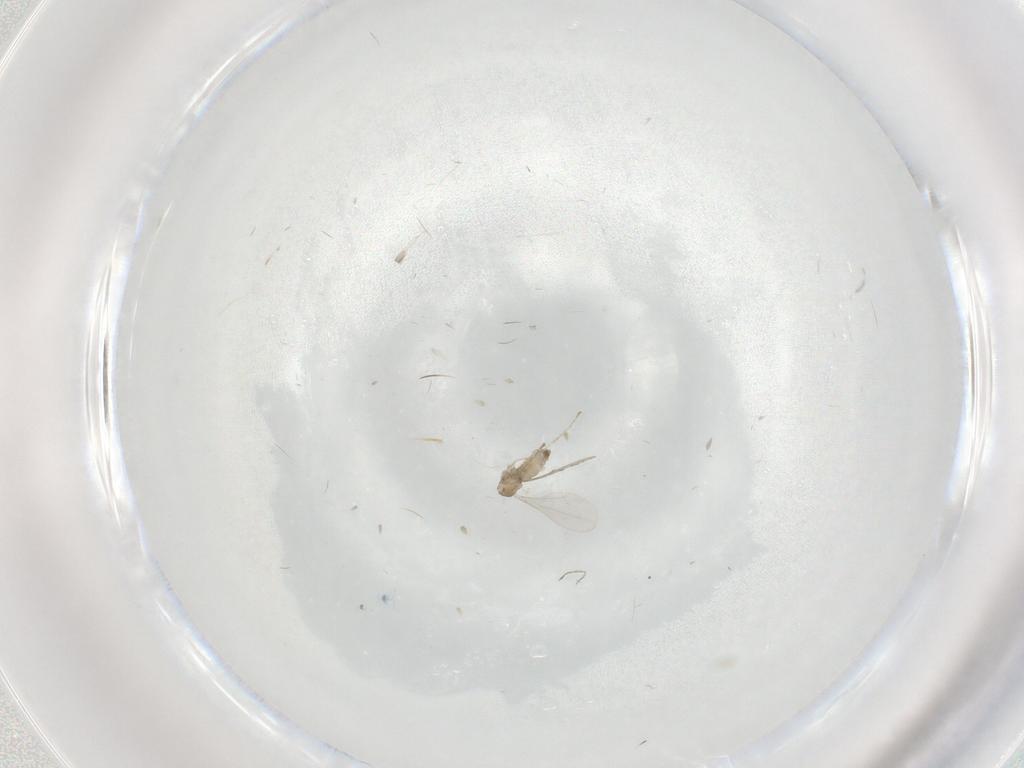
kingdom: Animalia
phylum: Arthropoda
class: Insecta
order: Diptera
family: Cecidomyiidae
